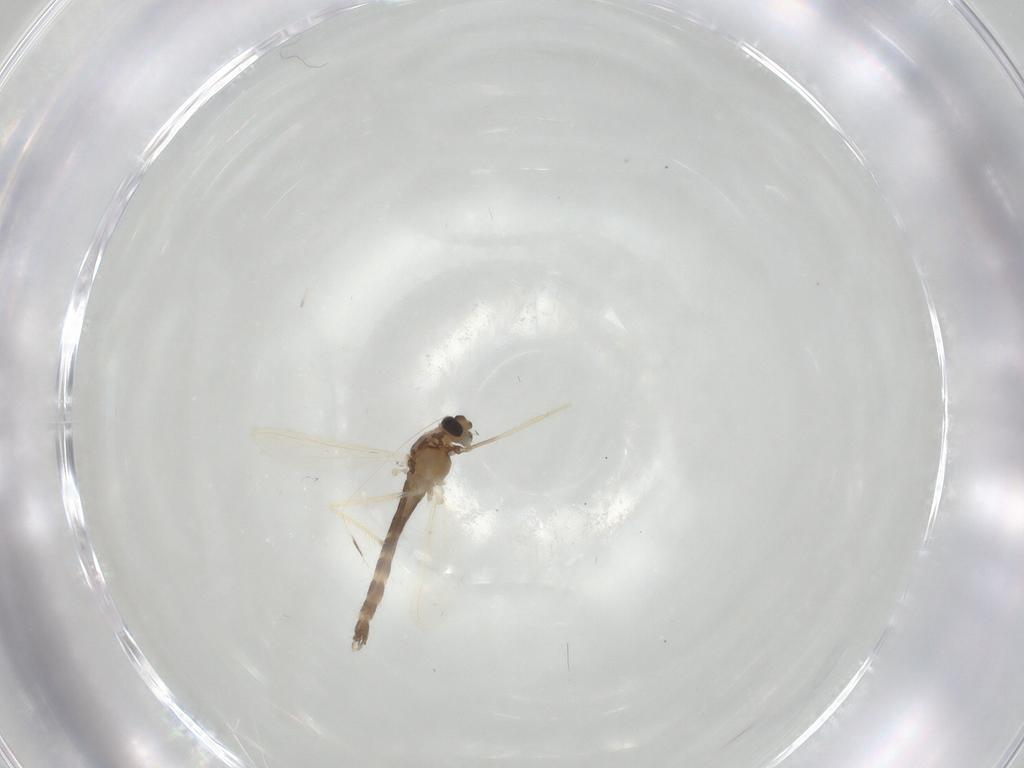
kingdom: Animalia
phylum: Arthropoda
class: Insecta
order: Diptera
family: Chironomidae
